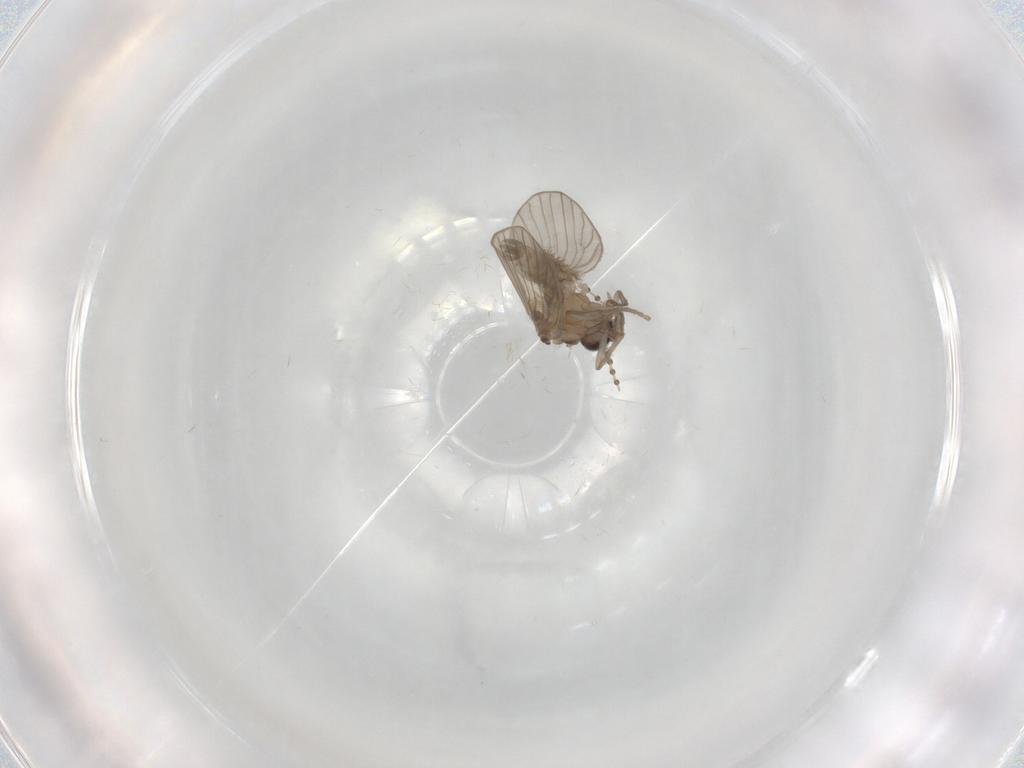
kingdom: Animalia
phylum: Arthropoda
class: Insecta
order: Diptera
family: Psychodidae
